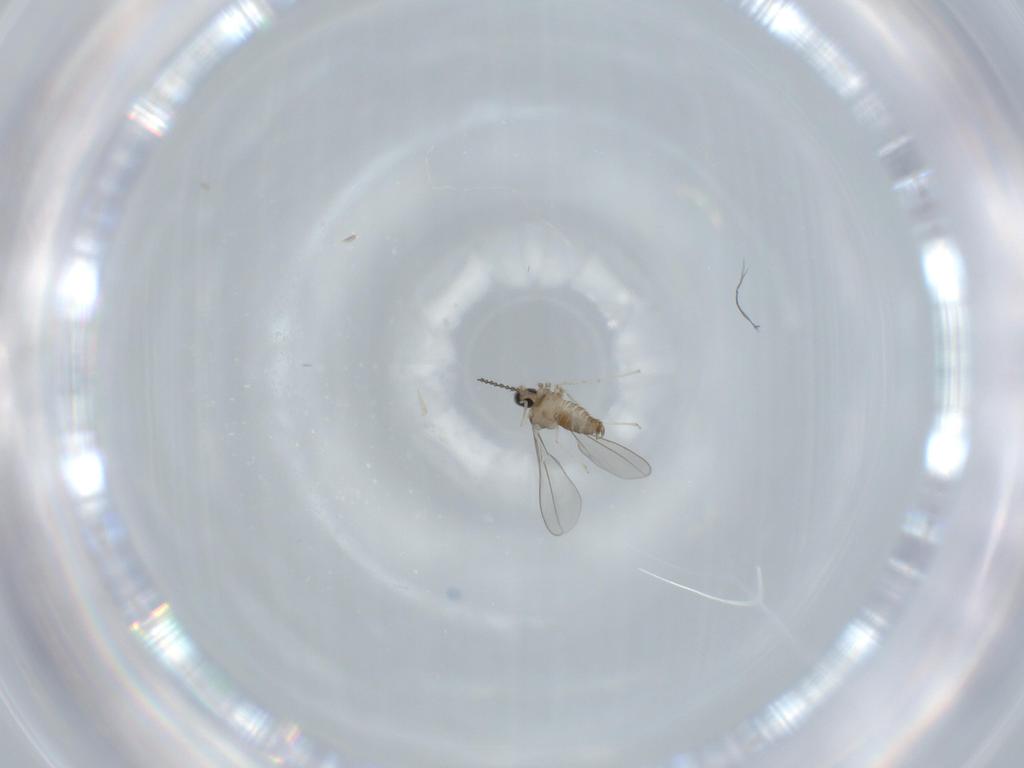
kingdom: Animalia
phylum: Arthropoda
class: Insecta
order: Diptera
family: Cecidomyiidae
